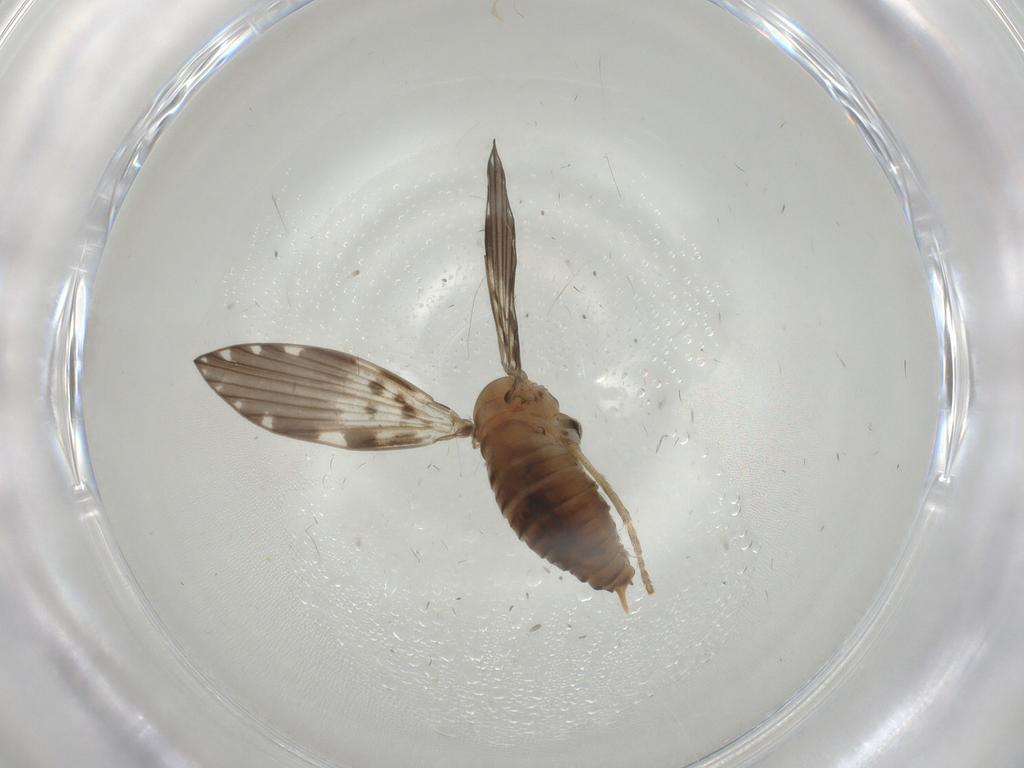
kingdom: Animalia
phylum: Arthropoda
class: Insecta
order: Diptera
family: Psychodidae
